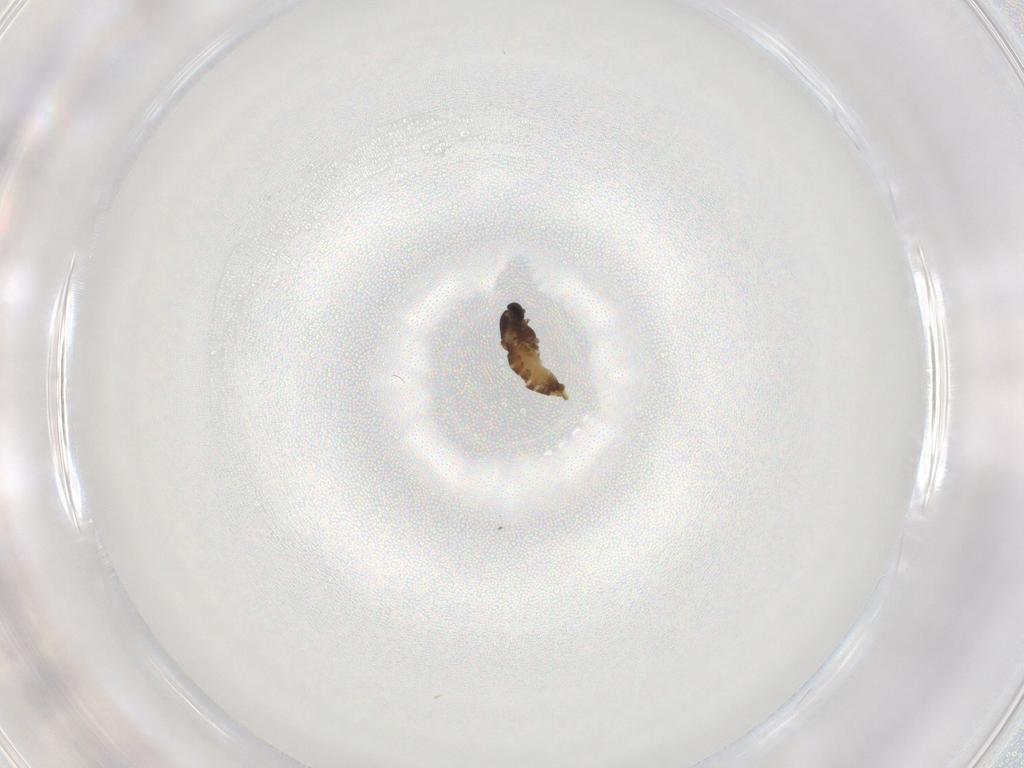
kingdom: Animalia
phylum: Arthropoda
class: Insecta
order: Diptera
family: Chironomidae
